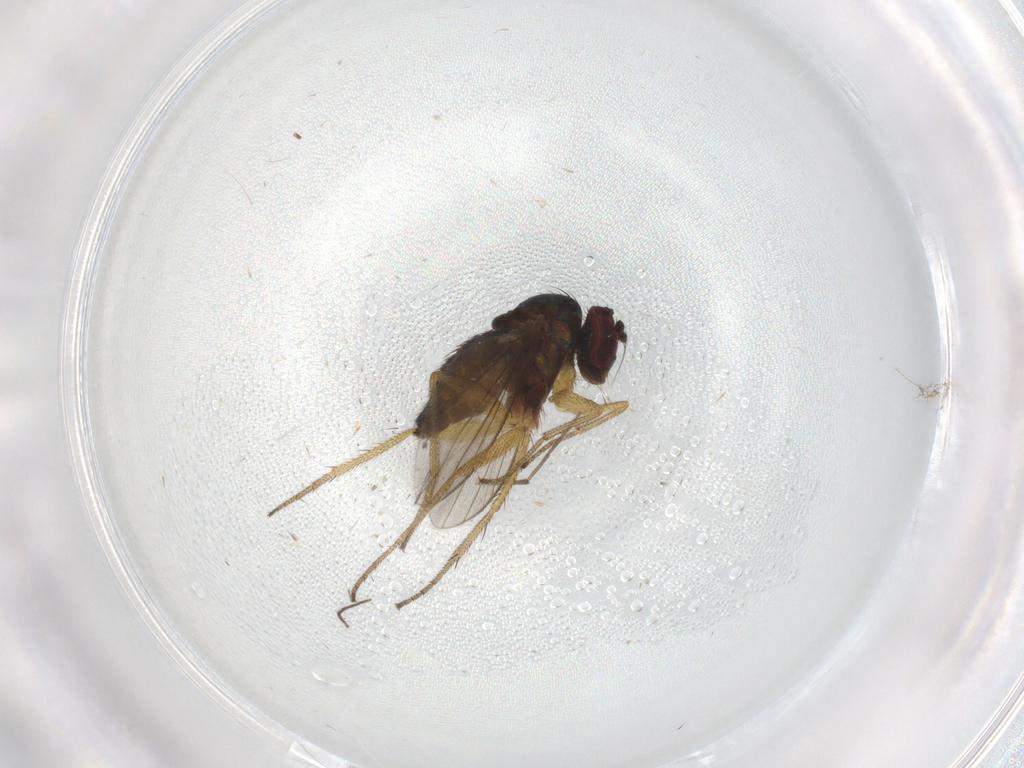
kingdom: Animalia
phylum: Arthropoda
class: Insecta
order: Diptera
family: Chironomidae
